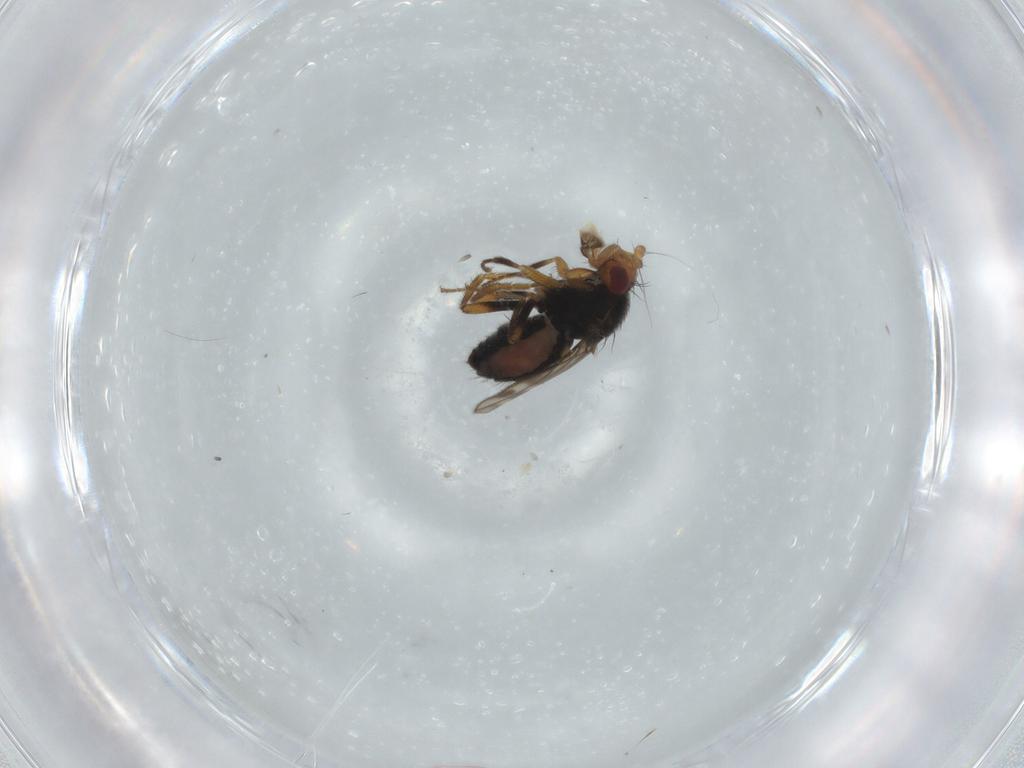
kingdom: Animalia
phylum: Arthropoda
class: Insecta
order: Diptera
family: Sphaeroceridae
